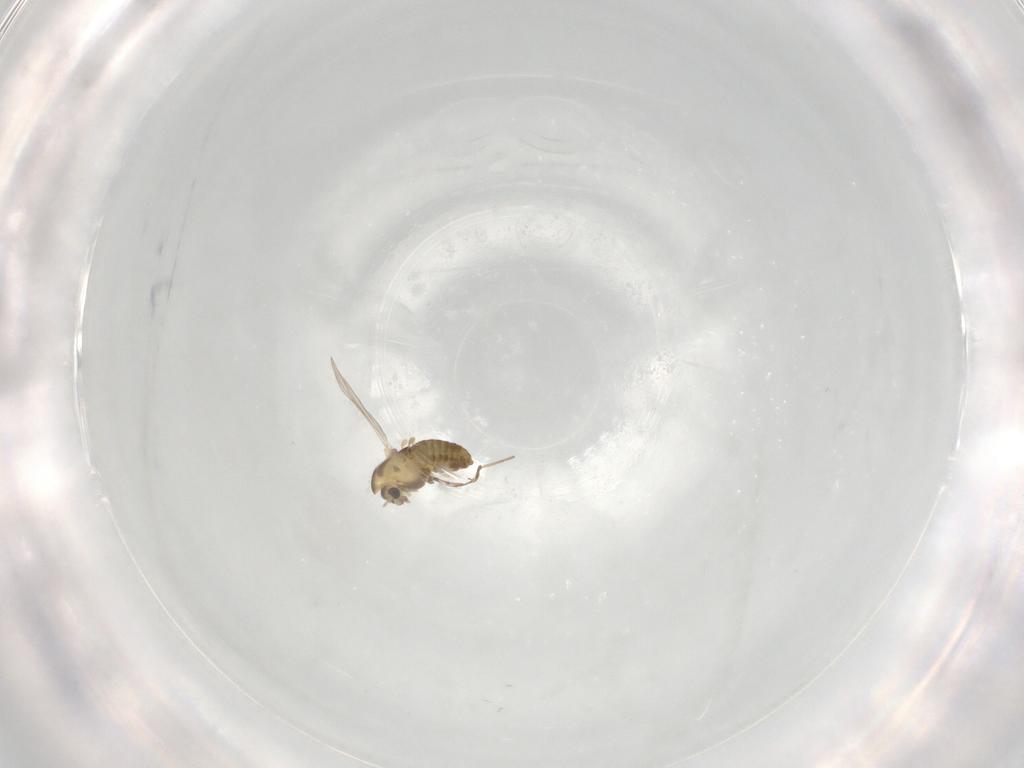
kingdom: Animalia
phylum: Arthropoda
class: Insecta
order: Diptera
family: Chironomidae
